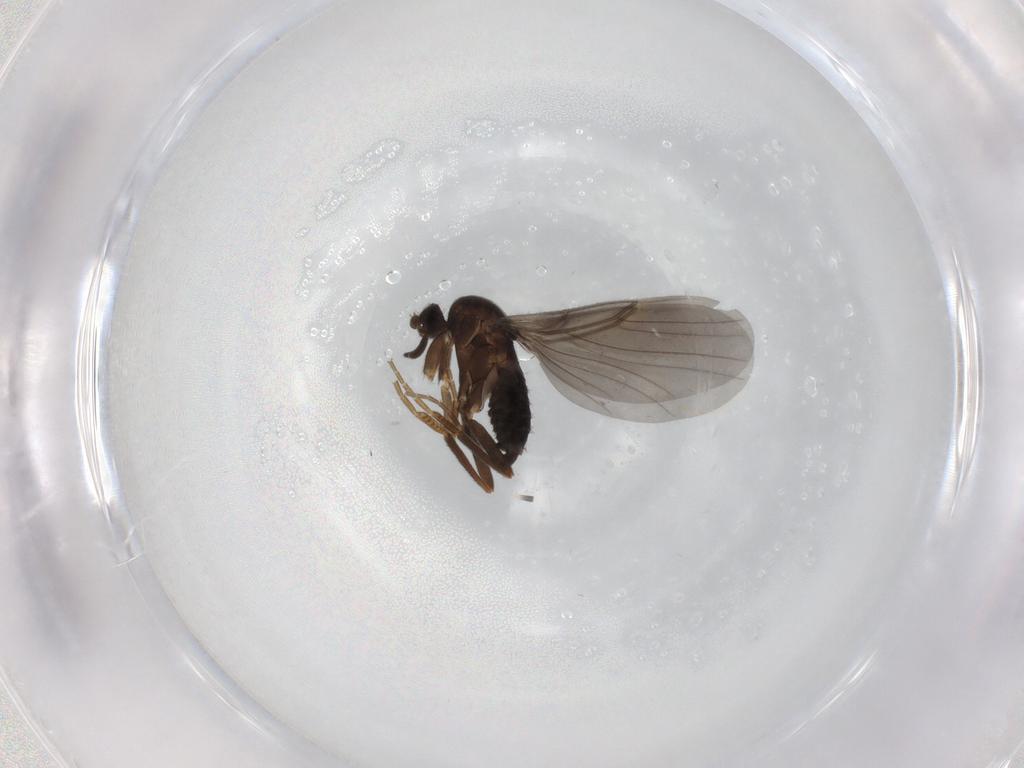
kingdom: Animalia
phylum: Arthropoda
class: Insecta
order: Diptera
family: Phoridae
